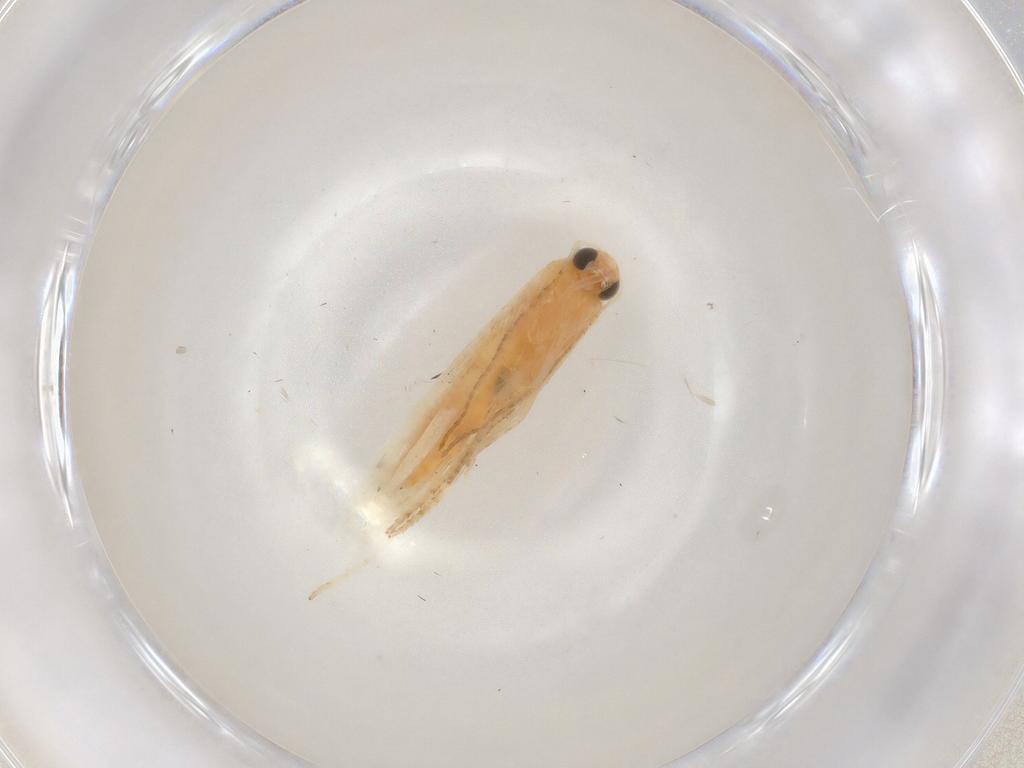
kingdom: Animalia
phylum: Arthropoda
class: Insecta
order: Lepidoptera
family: Argyresthiidae
